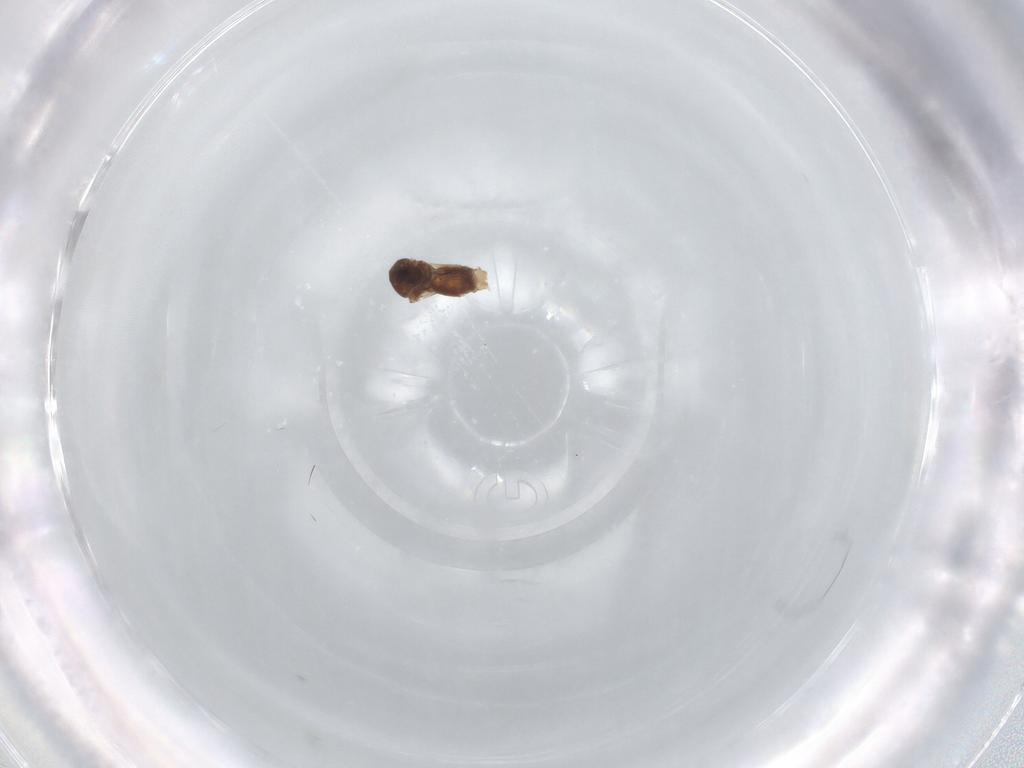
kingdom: Animalia
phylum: Arthropoda
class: Insecta
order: Diptera
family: Ceratopogonidae
